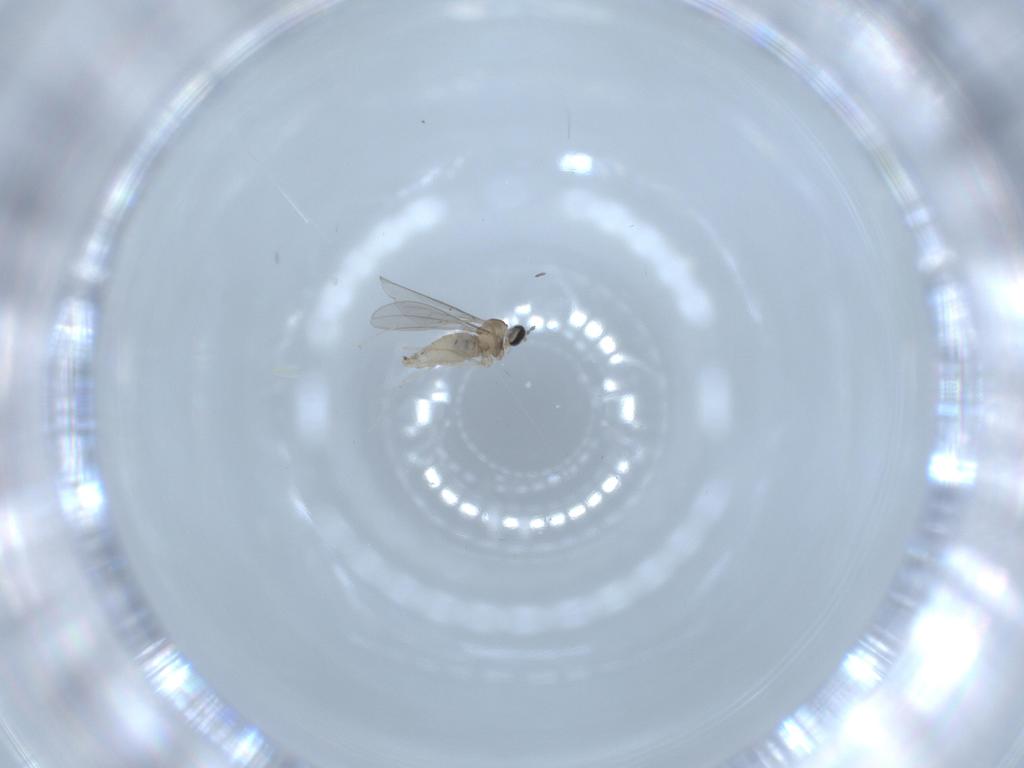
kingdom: Animalia
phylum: Arthropoda
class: Insecta
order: Diptera
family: Cecidomyiidae
